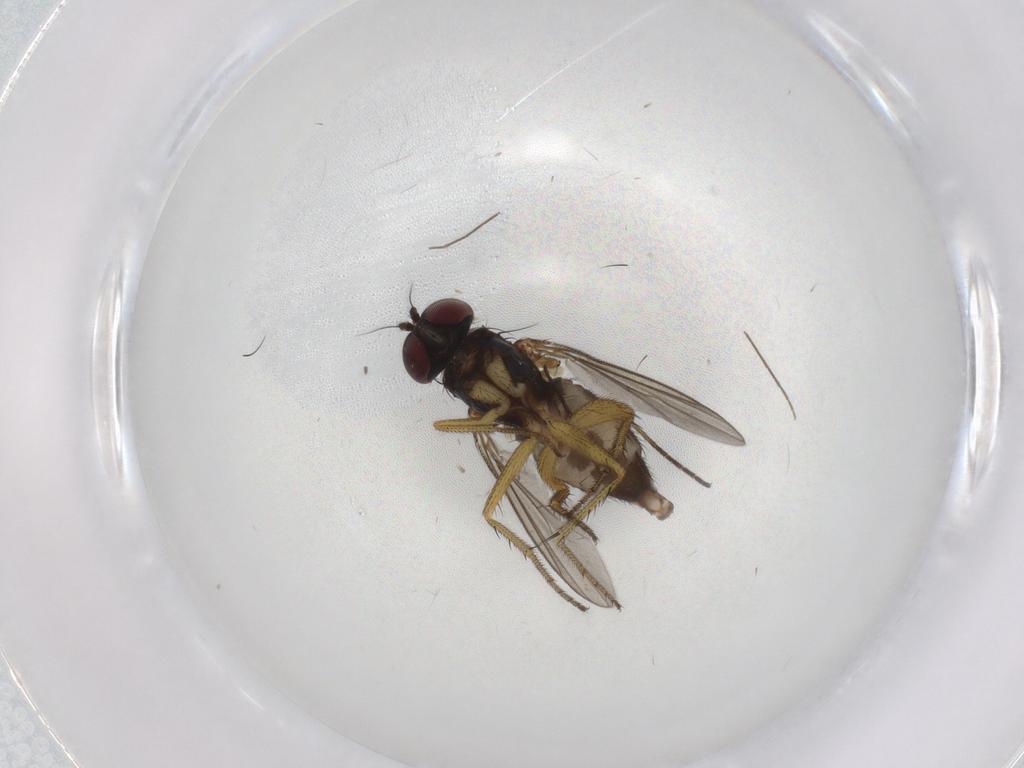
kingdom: Animalia
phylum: Arthropoda
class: Insecta
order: Diptera
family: Sciaridae
